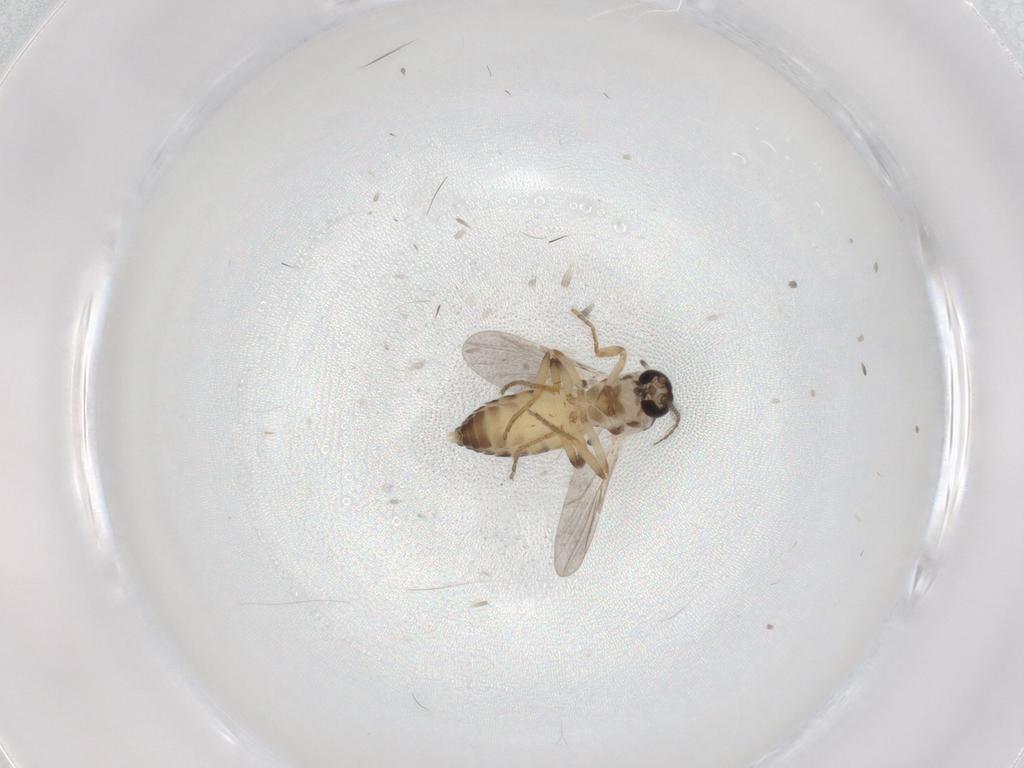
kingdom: Animalia
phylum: Arthropoda
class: Insecta
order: Diptera
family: Ceratopogonidae
